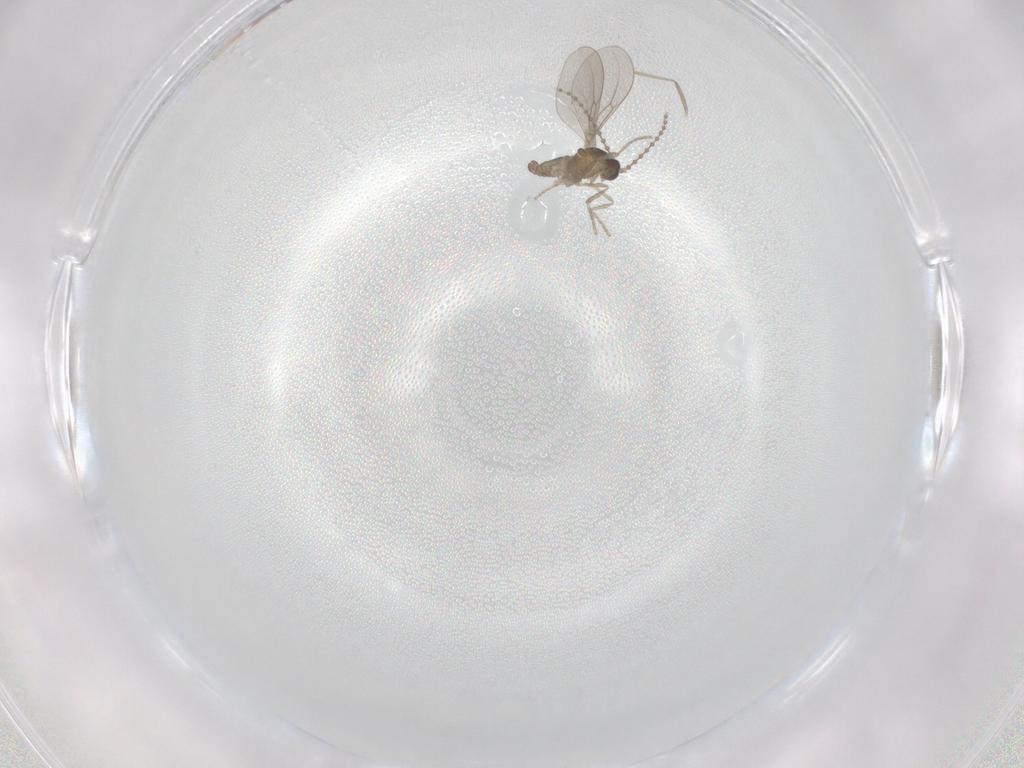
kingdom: Animalia
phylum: Arthropoda
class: Insecta
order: Diptera
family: Cecidomyiidae
